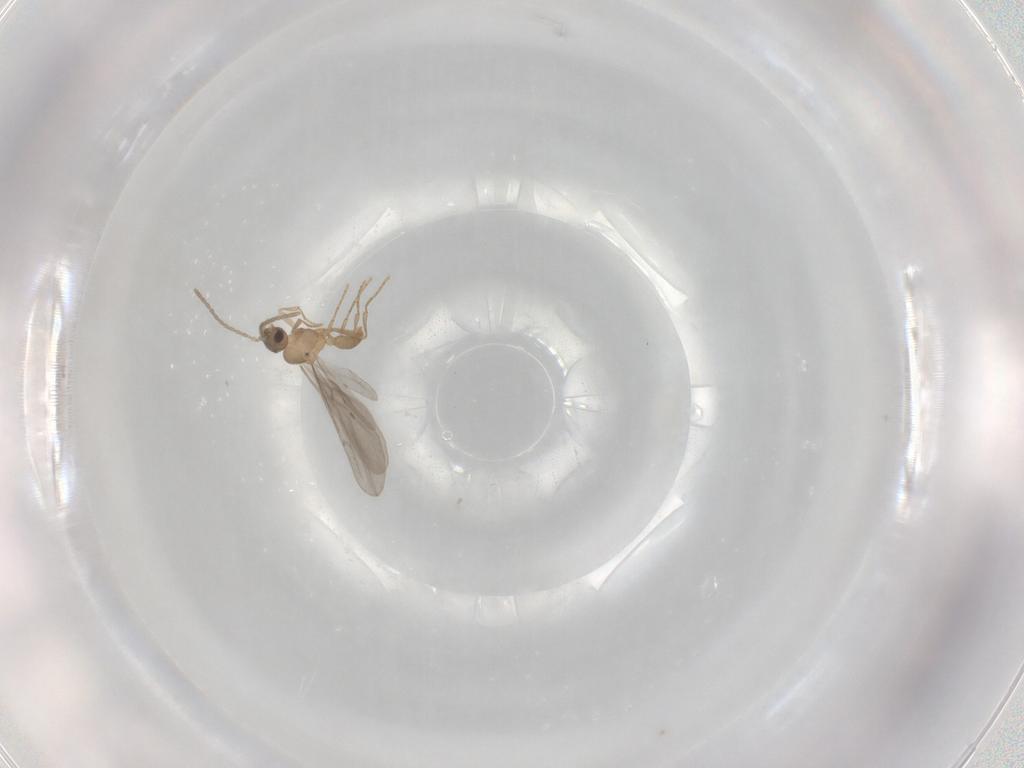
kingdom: Animalia
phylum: Arthropoda
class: Insecta
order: Hymenoptera
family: Formicidae
